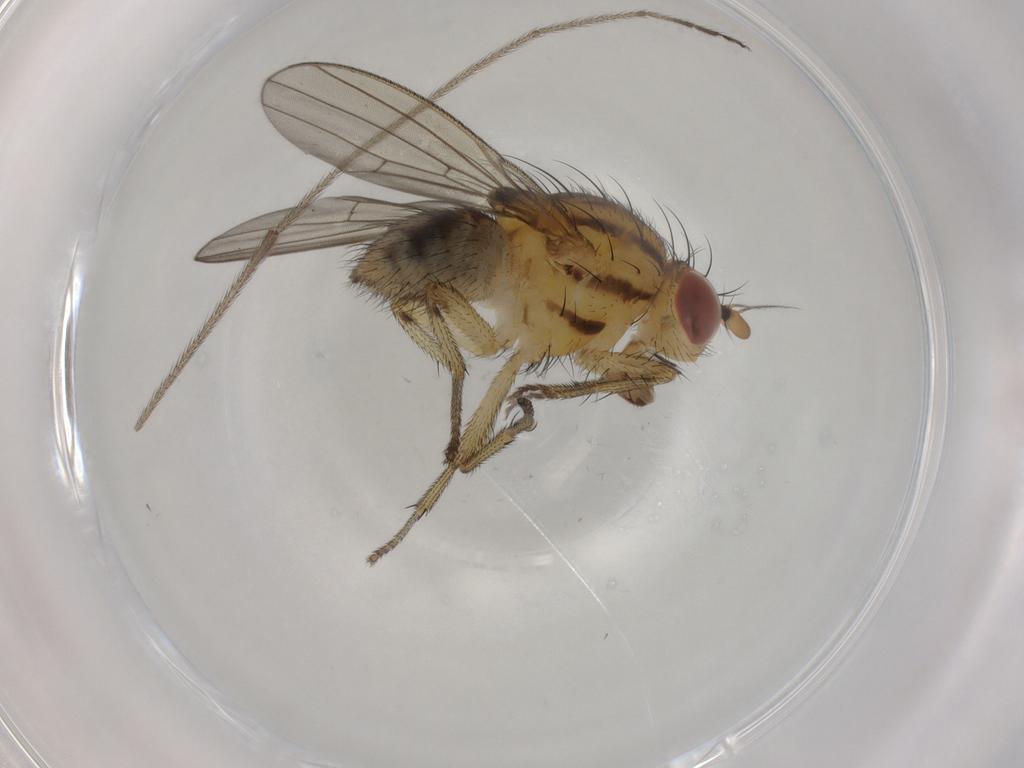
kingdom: Animalia
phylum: Arthropoda
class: Insecta
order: Diptera
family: Limoniidae
